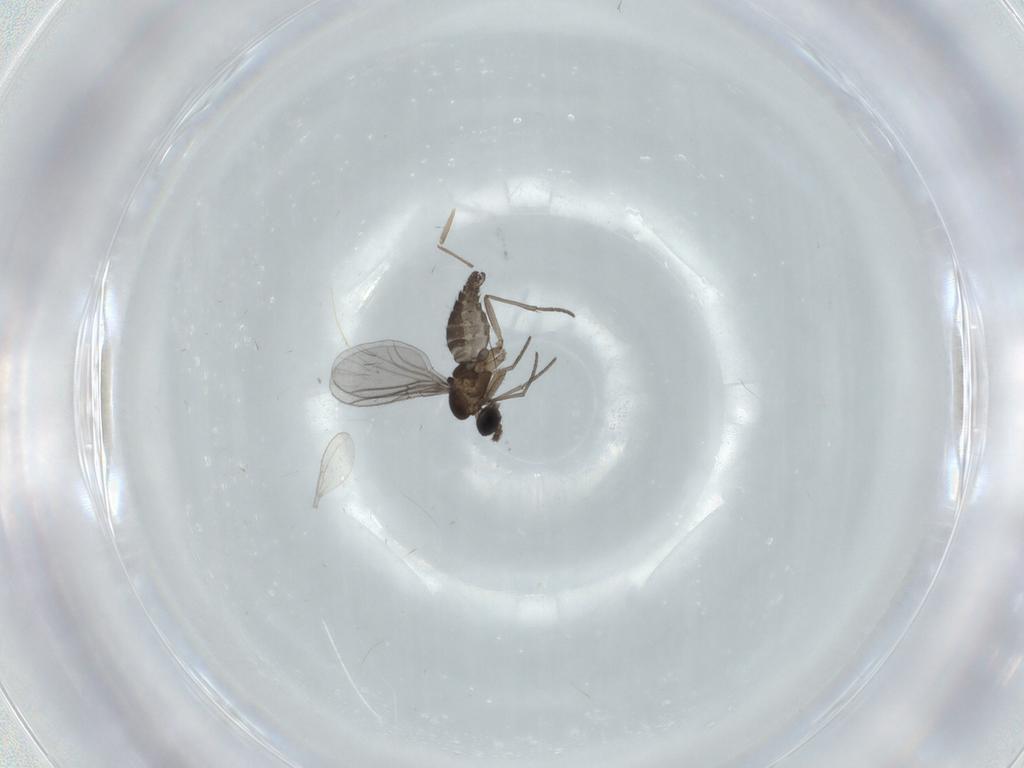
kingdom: Animalia
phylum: Arthropoda
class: Insecta
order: Diptera
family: Cecidomyiidae
